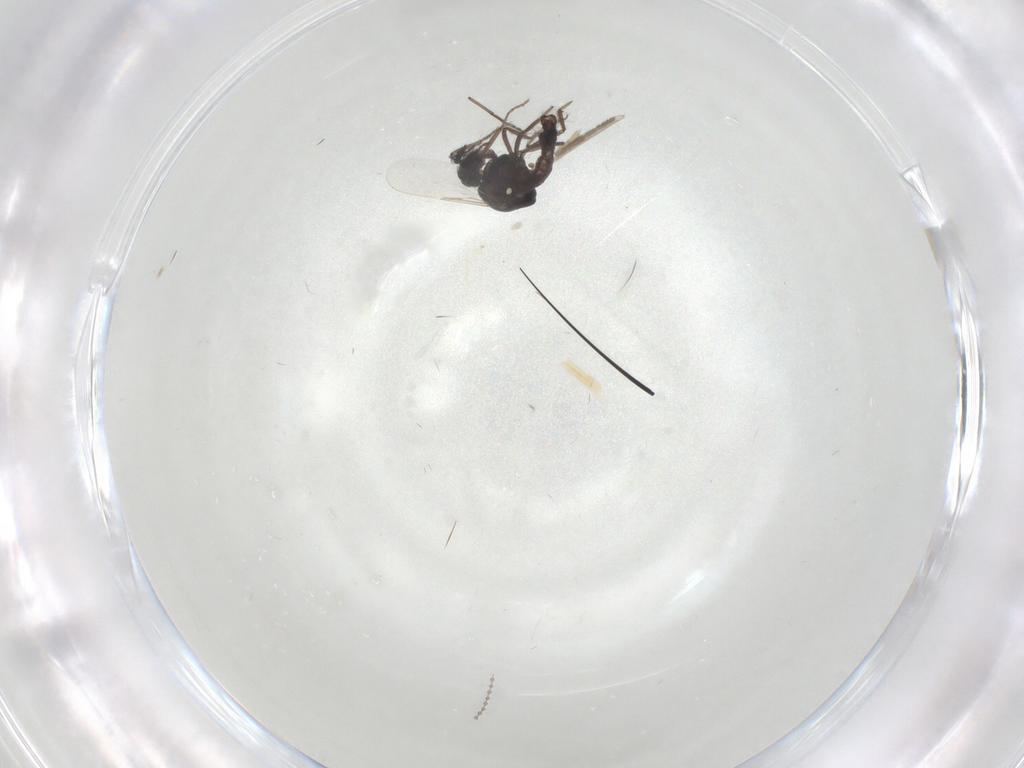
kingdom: Animalia
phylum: Arthropoda
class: Insecta
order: Diptera
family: Ceratopogonidae
